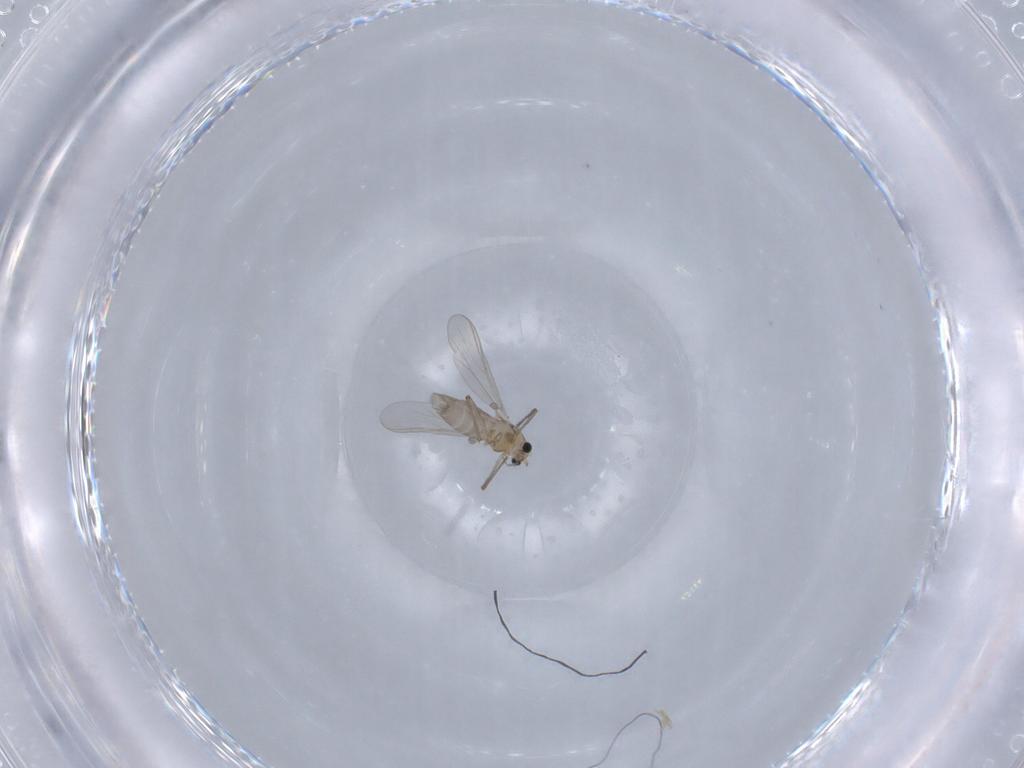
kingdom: Animalia
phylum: Arthropoda
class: Insecta
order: Diptera
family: Chironomidae
